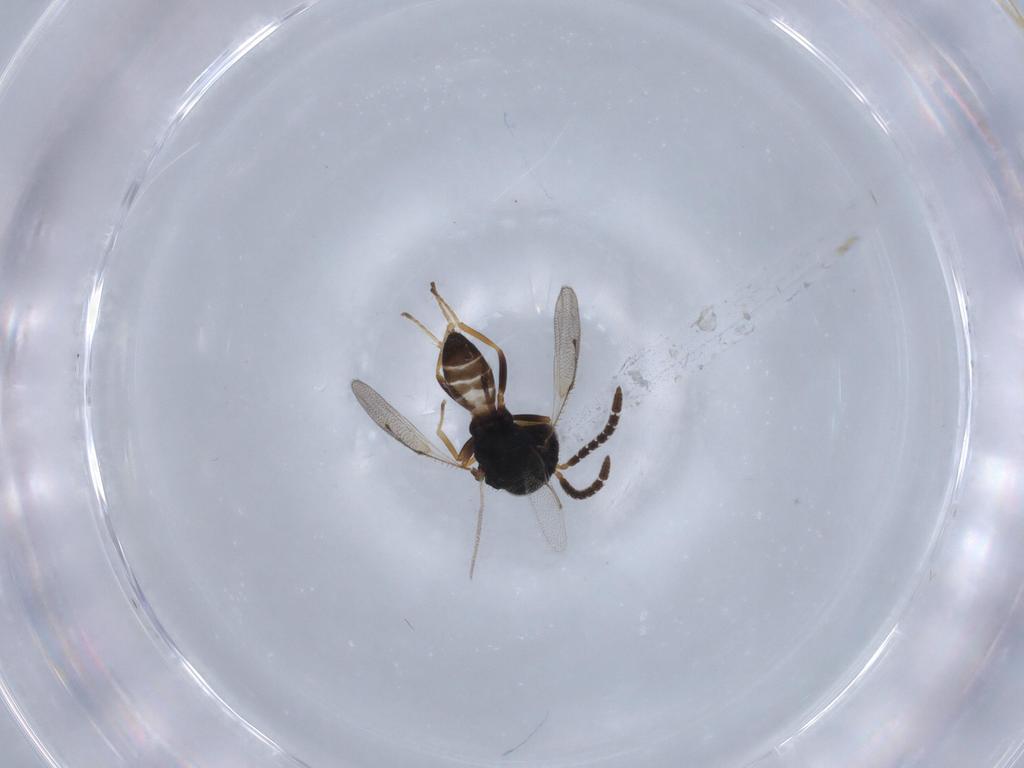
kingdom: Animalia
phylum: Arthropoda
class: Insecta
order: Hymenoptera
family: Agaonidae
